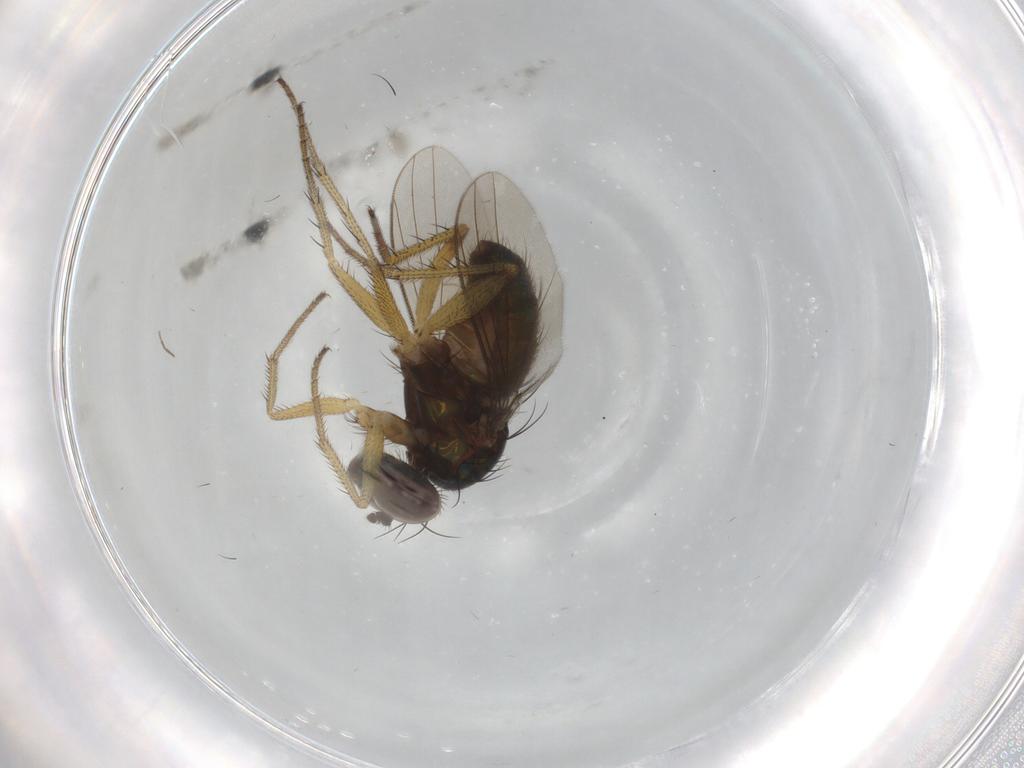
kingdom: Animalia
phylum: Arthropoda
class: Insecta
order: Diptera
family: Dolichopodidae
